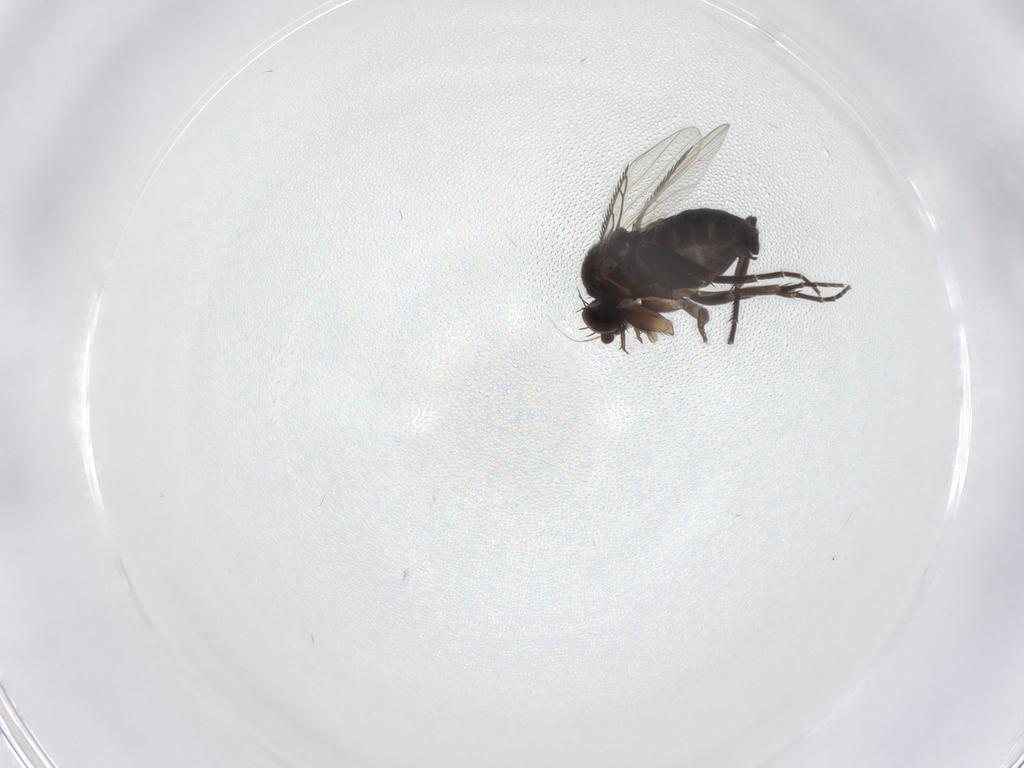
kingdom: Animalia
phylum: Arthropoda
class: Insecta
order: Diptera
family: Phoridae
